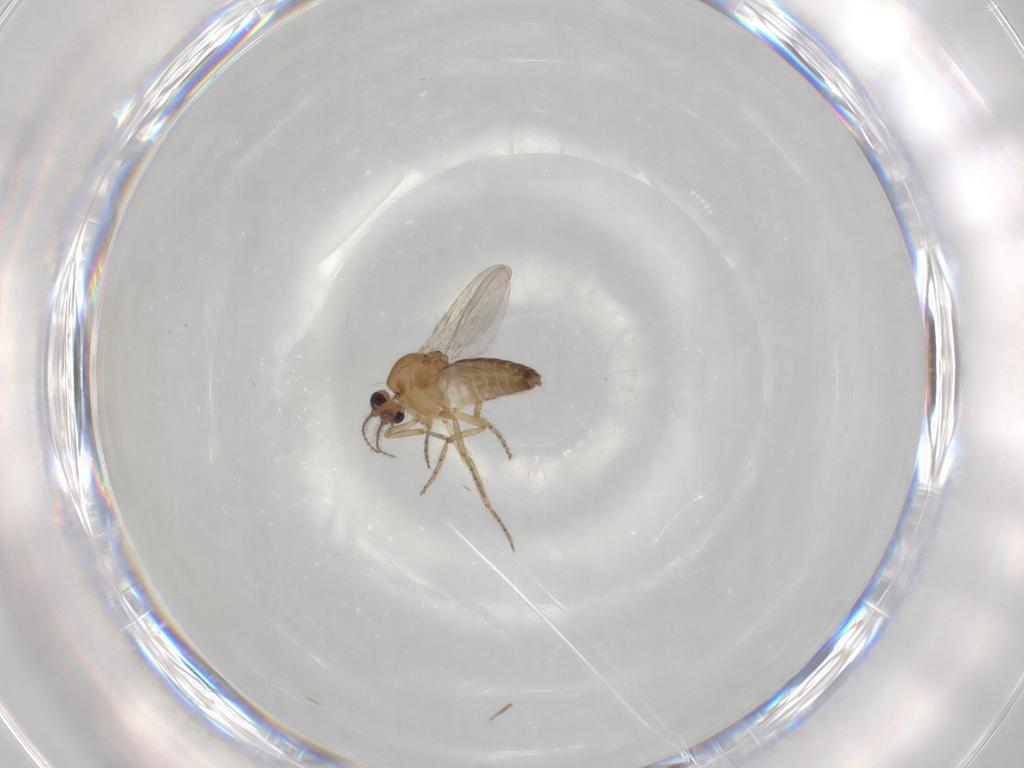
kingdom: Animalia
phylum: Arthropoda
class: Insecta
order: Diptera
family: Ceratopogonidae
